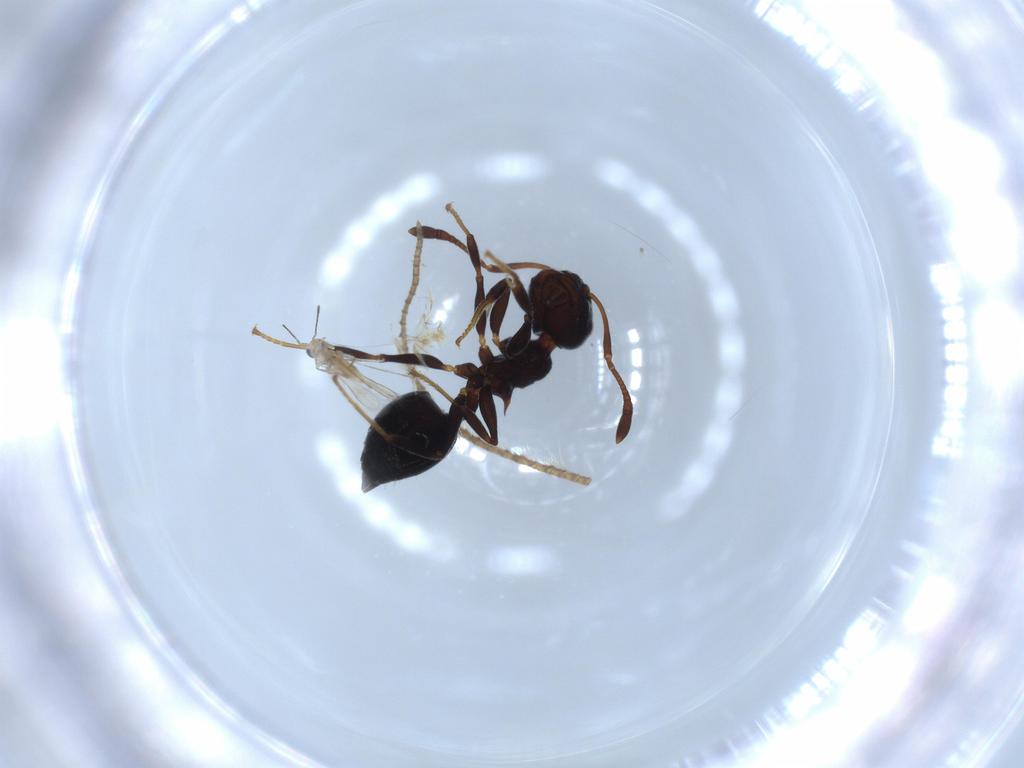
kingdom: Animalia
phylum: Arthropoda
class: Insecta
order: Hymenoptera
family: Formicidae
